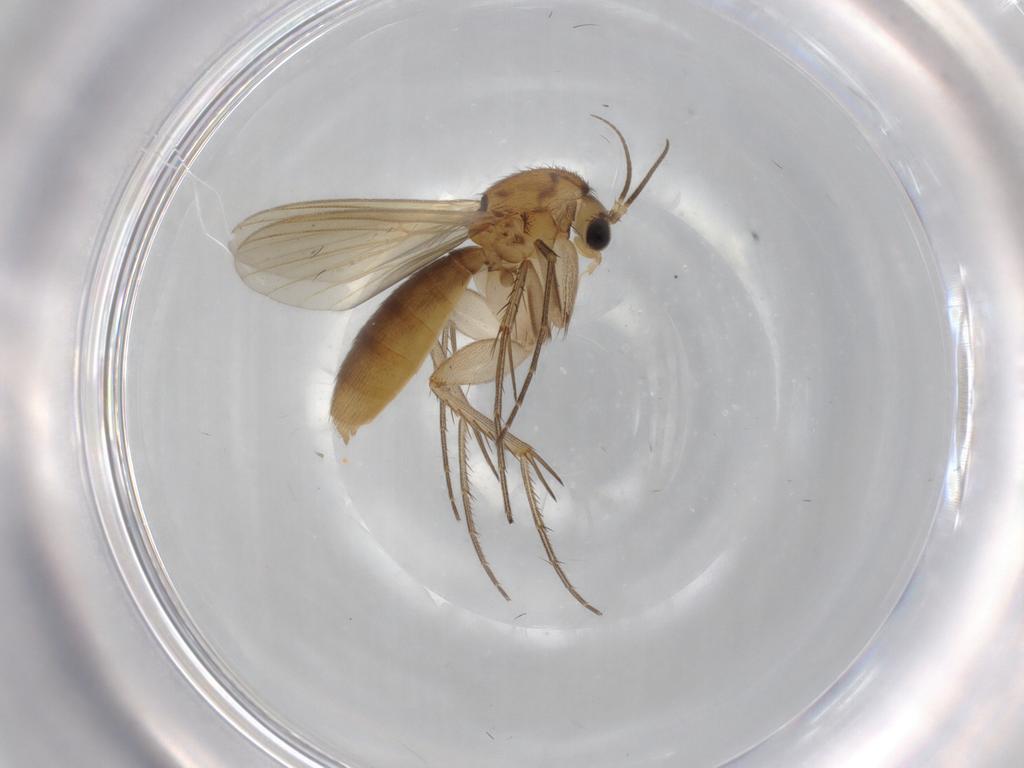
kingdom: Animalia
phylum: Arthropoda
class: Insecta
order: Diptera
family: Mycetophilidae
